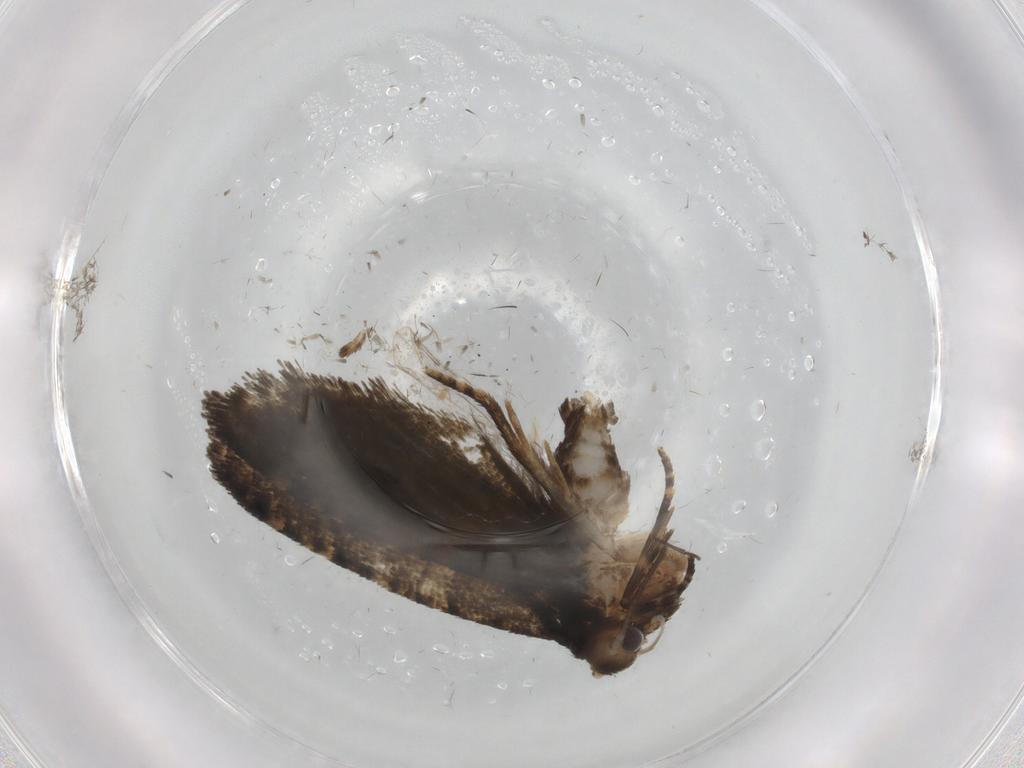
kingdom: Animalia
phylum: Arthropoda
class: Insecta
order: Lepidoptera
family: Tortricidae
